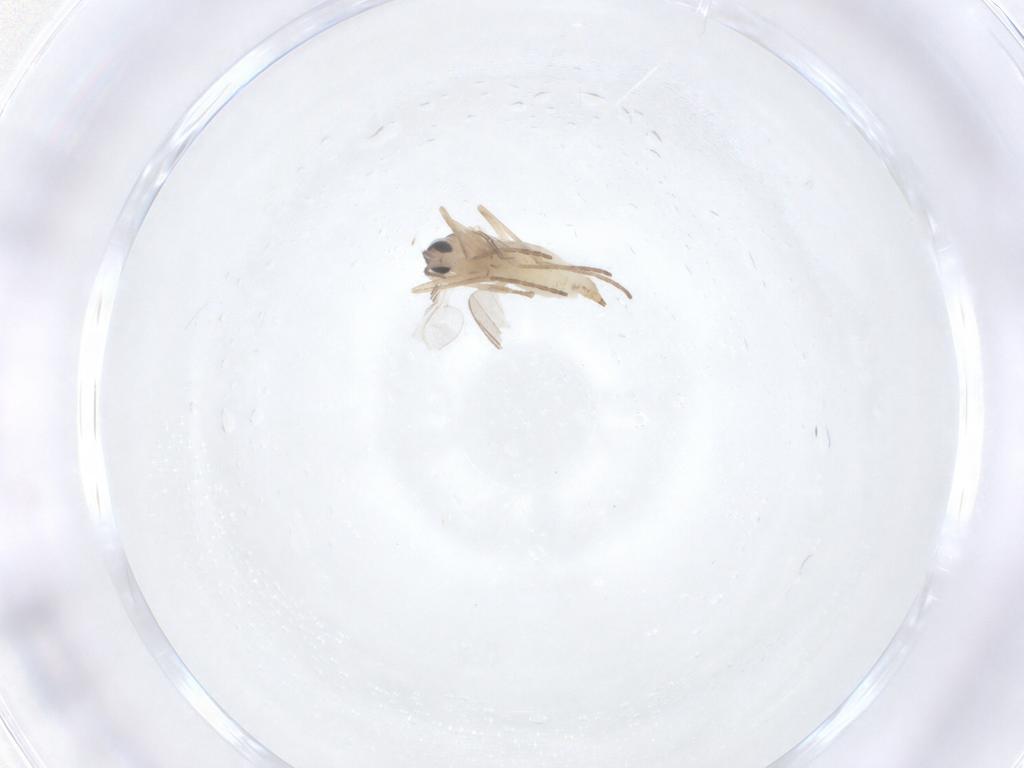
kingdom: Animalia
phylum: Arthropoda
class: Insecta
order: Diptera
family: Cecidomyiidae
